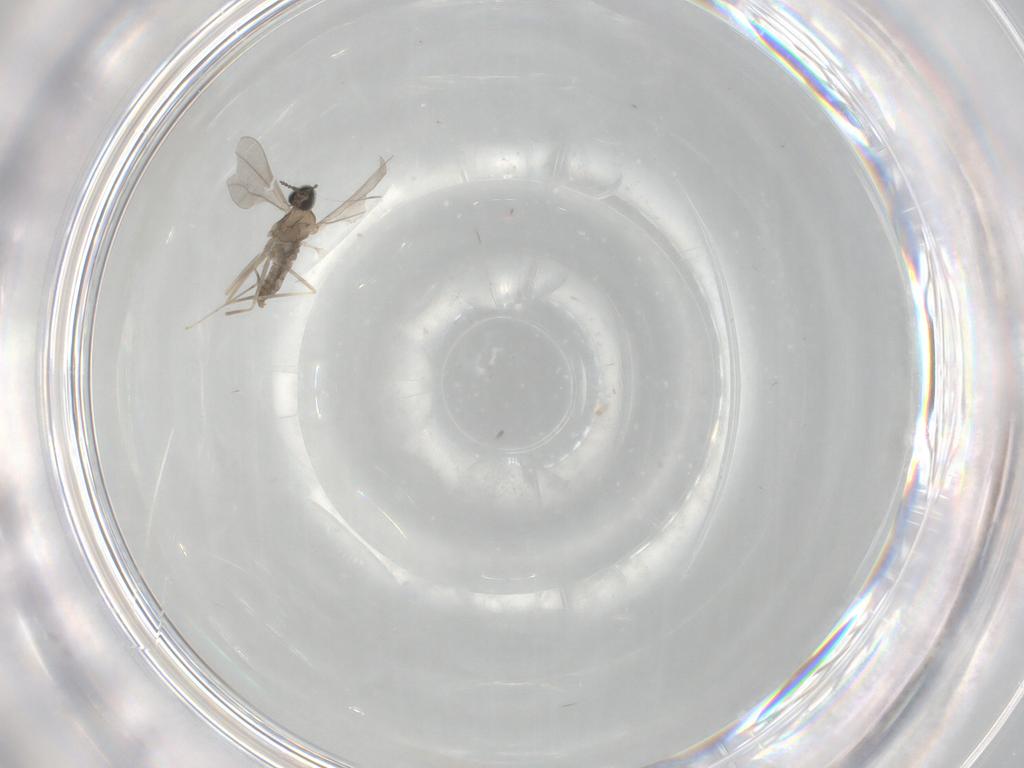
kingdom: Animalia
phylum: Arthropoda
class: Insecta
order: Diptera
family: Cecidomyiidae
